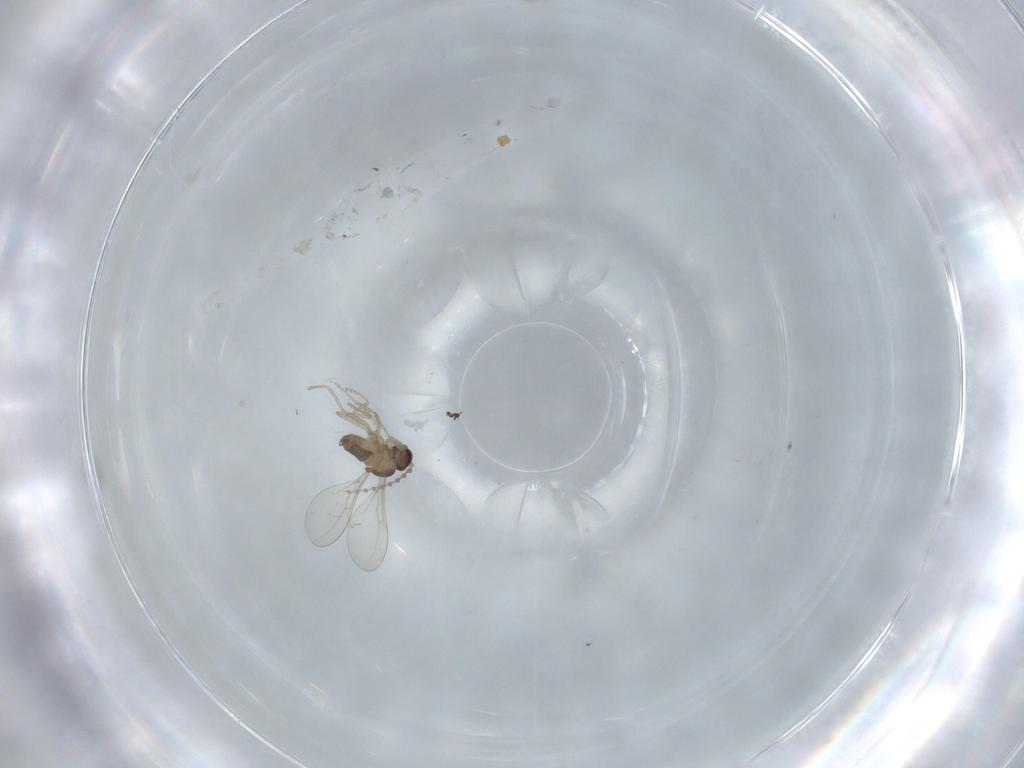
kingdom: Animalia
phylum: Arthropoda
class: Insecta
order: Diptera
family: Cecidomyiidae
